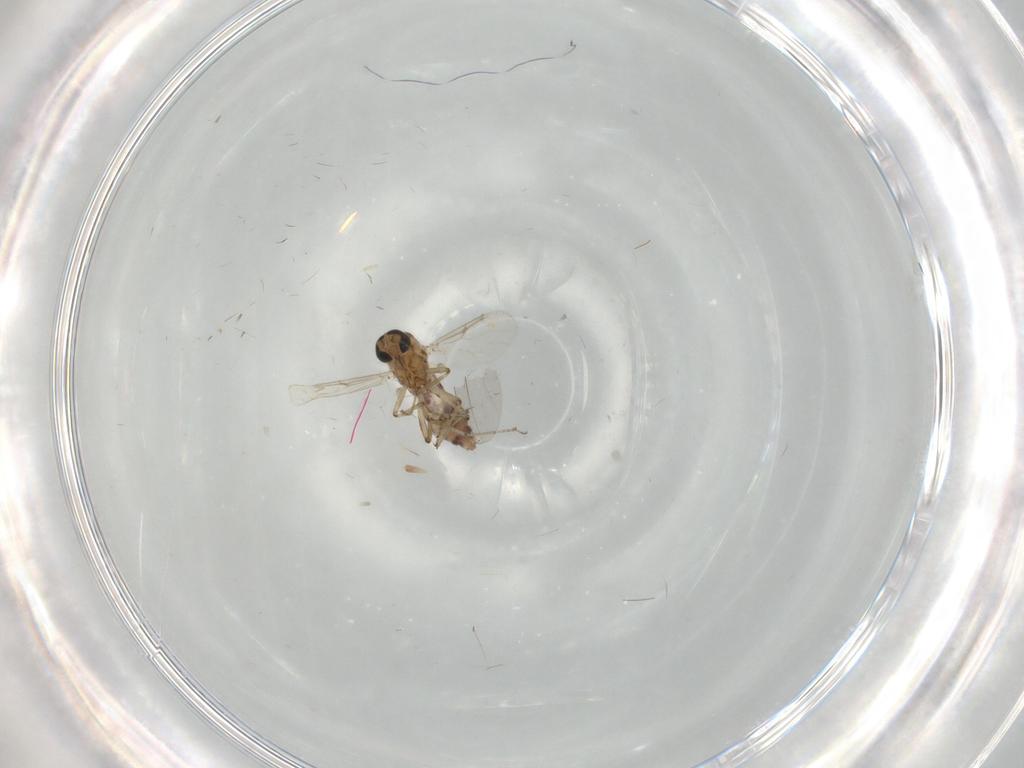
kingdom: Animalia
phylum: Arthropoda
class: Insecta
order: Diptera
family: Ceratopogonidae
